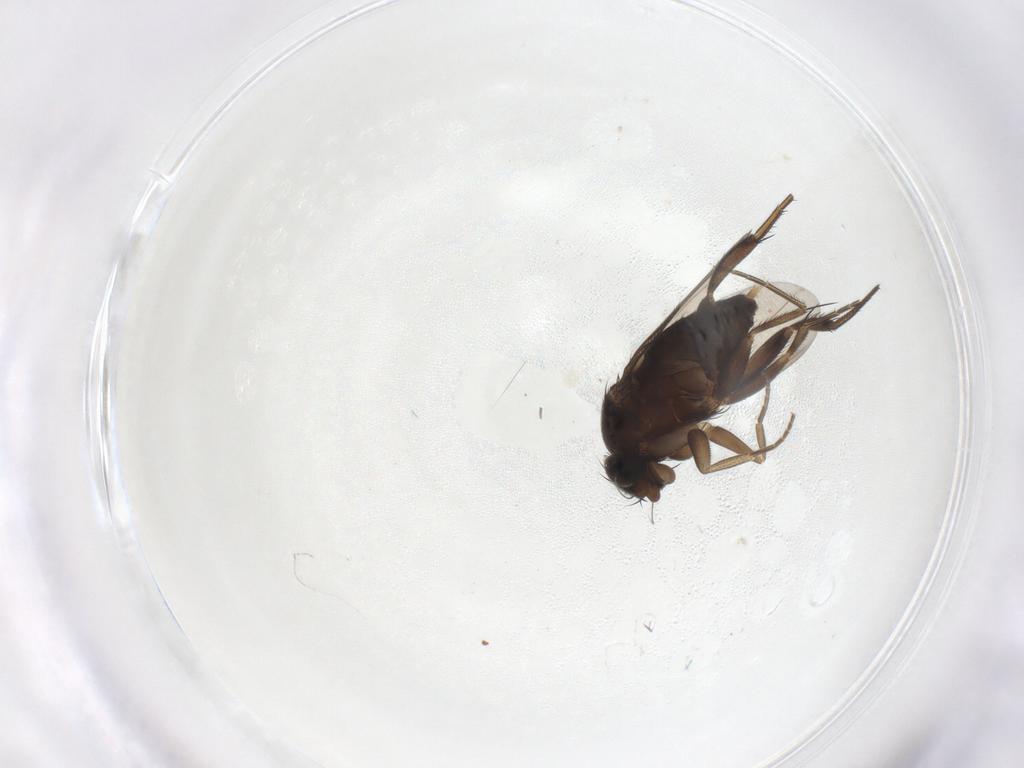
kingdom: Animalia
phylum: Arthropoda
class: Insecta
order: Diptera
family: Phoridae
